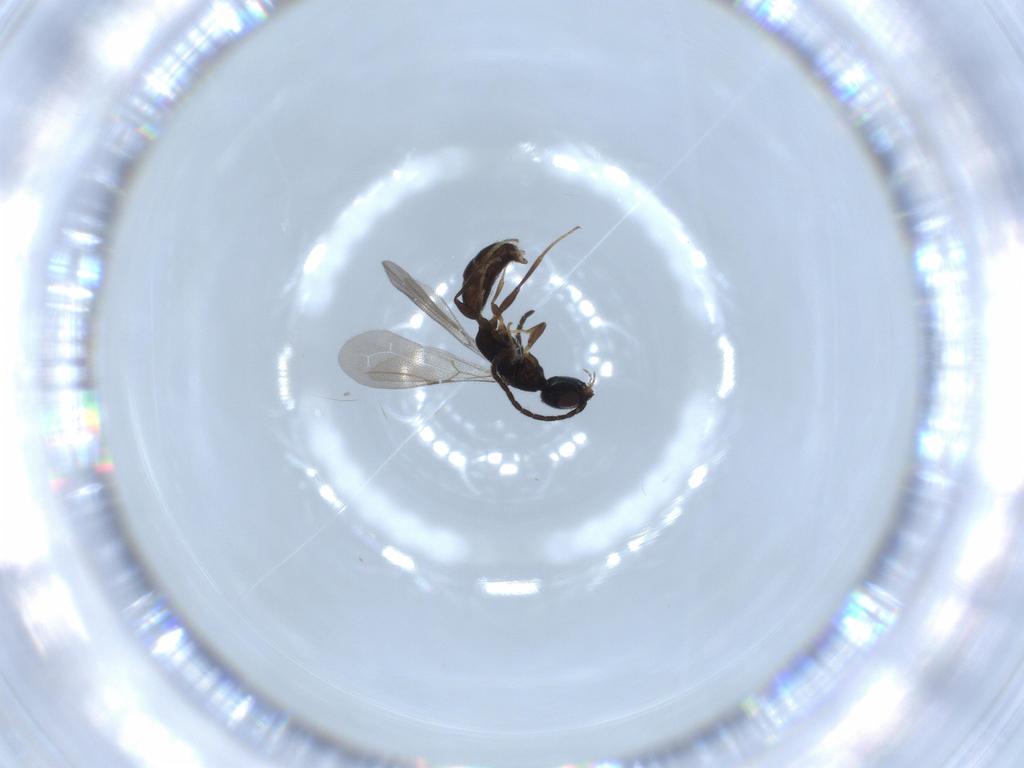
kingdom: Animalia
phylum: Arthropoda
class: Insecta
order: Hymenoptera
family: Bethylidae
